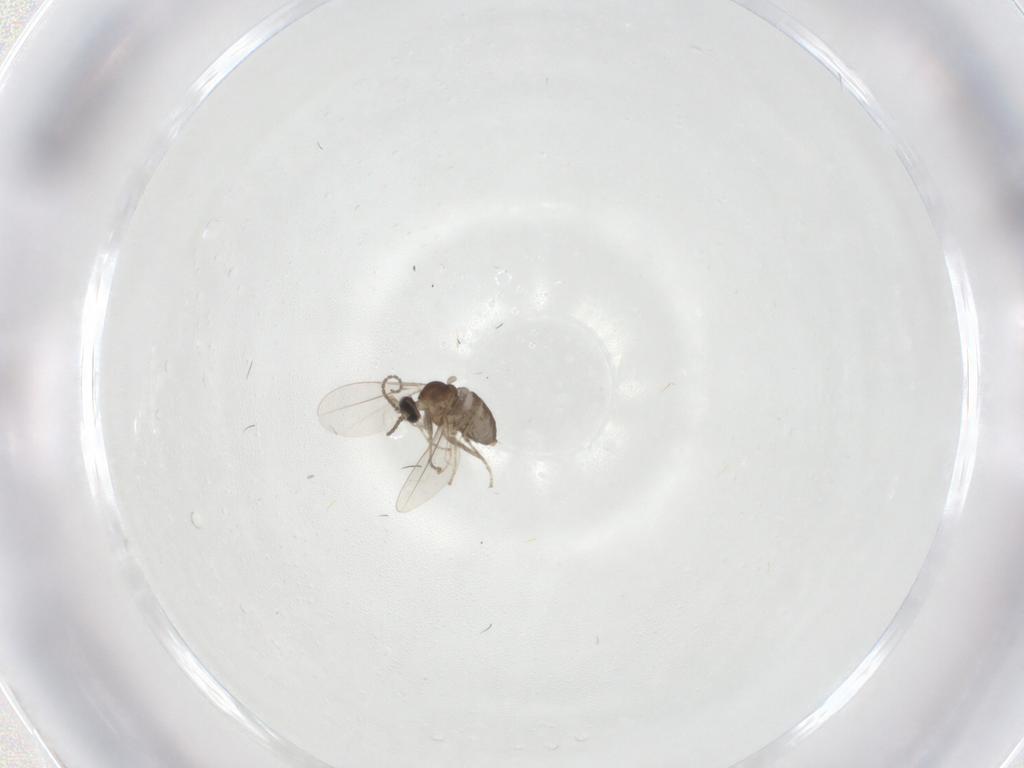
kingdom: Animalia
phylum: Arthropoda
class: Insecta
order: Diptera
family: Cecidomyiidae
